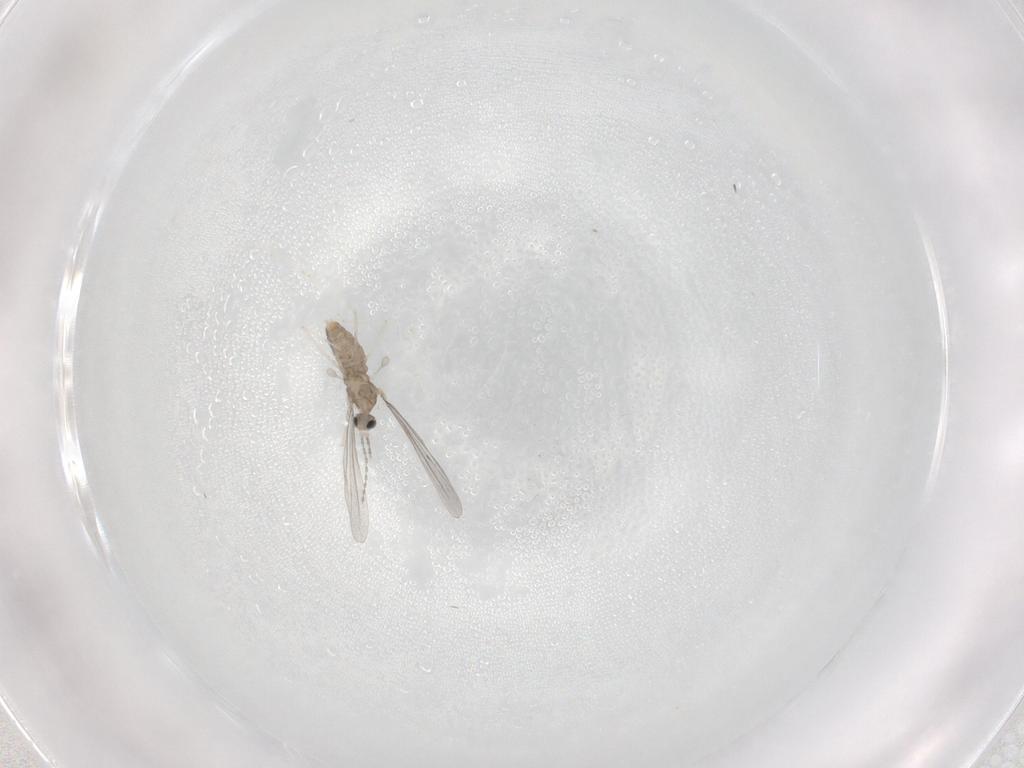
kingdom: Animalia
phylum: Arthropoda
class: Insecta
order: Diptera
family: Cecidomyiidae
